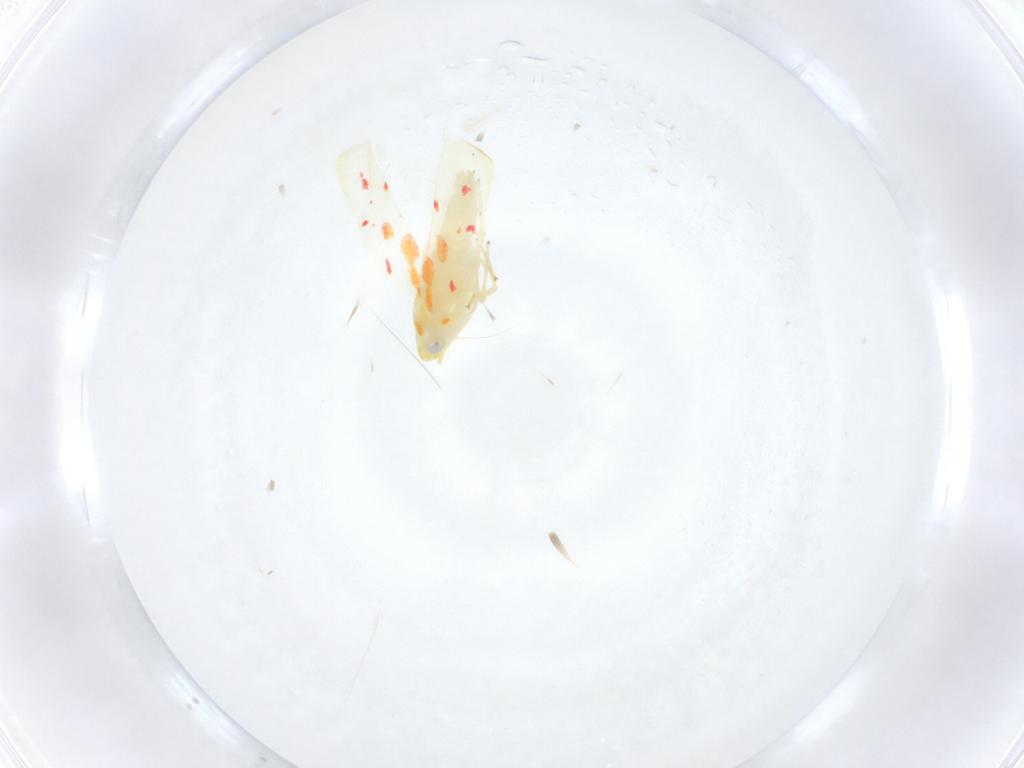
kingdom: Animalia
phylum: Arthropoda
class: Insecta
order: Hemiptera
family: Cicadellidae
